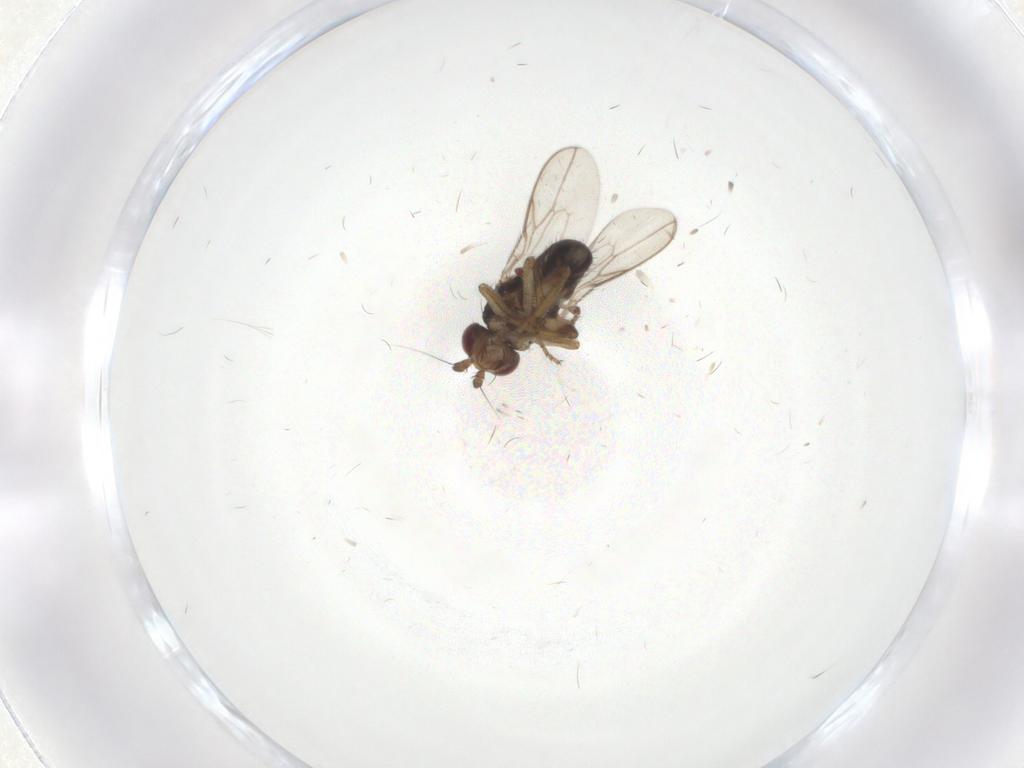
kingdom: Animalia
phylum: Arthropoda
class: Insecta
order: Diptera
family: Sphaeroceridae
